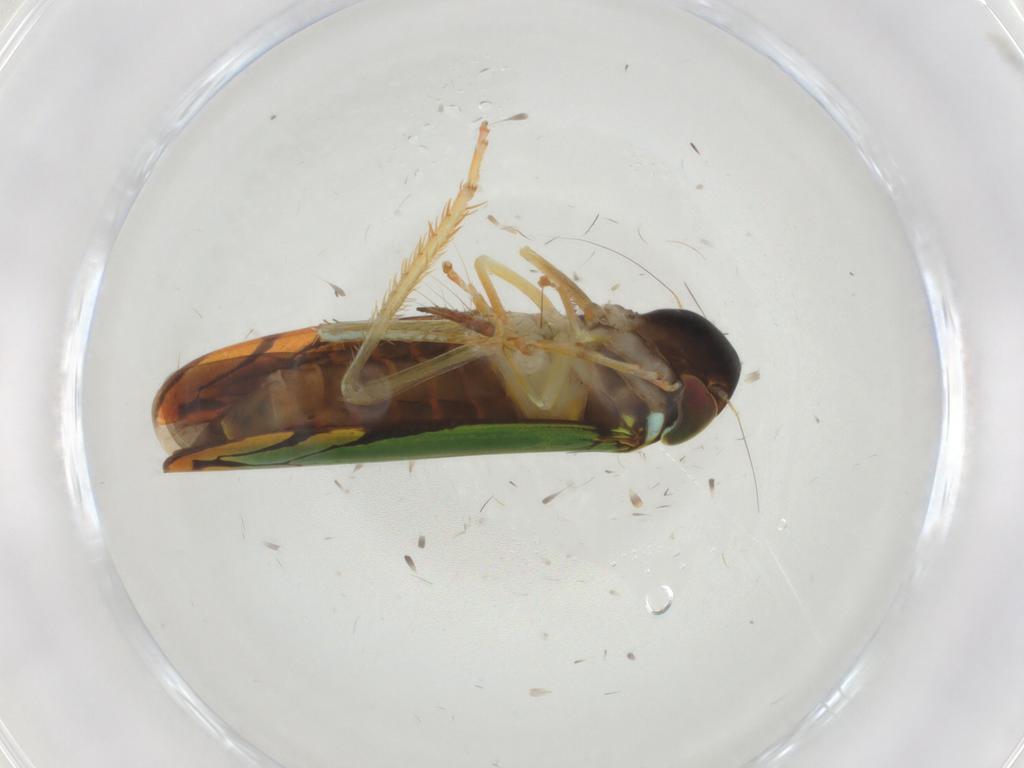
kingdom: Animalia
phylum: Arthropoda
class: Insecta
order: Hemiptera
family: Cicadellidae
